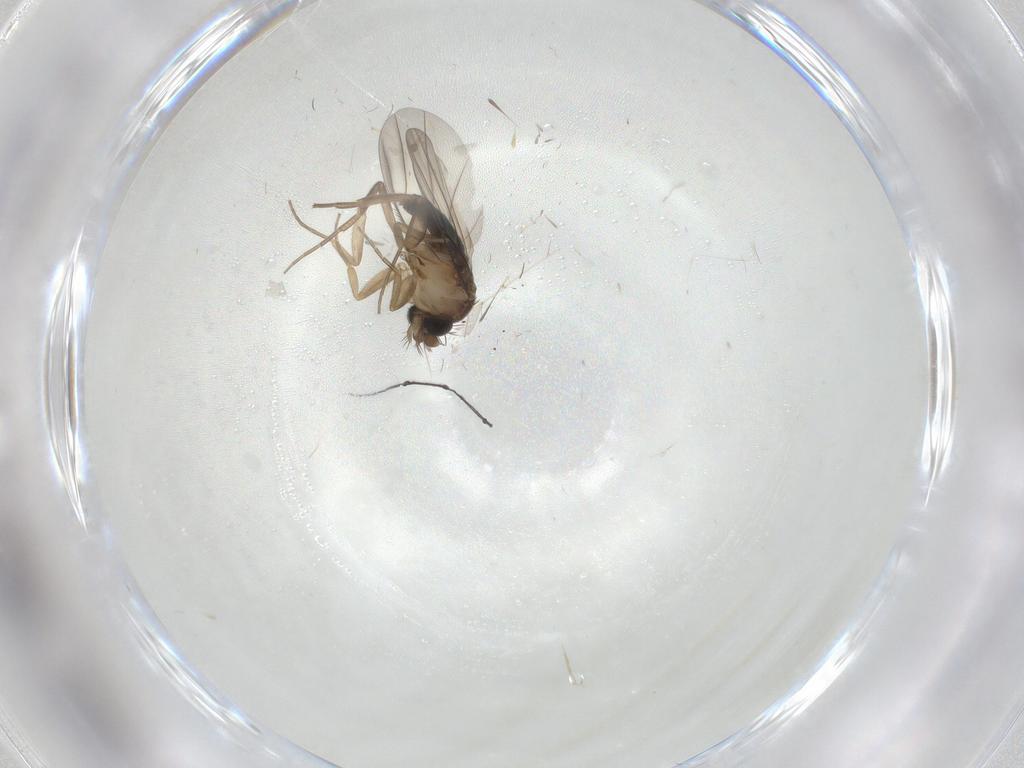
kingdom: Animalia
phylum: Arthropoda
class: Insecta
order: Diptera
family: Phoridae
